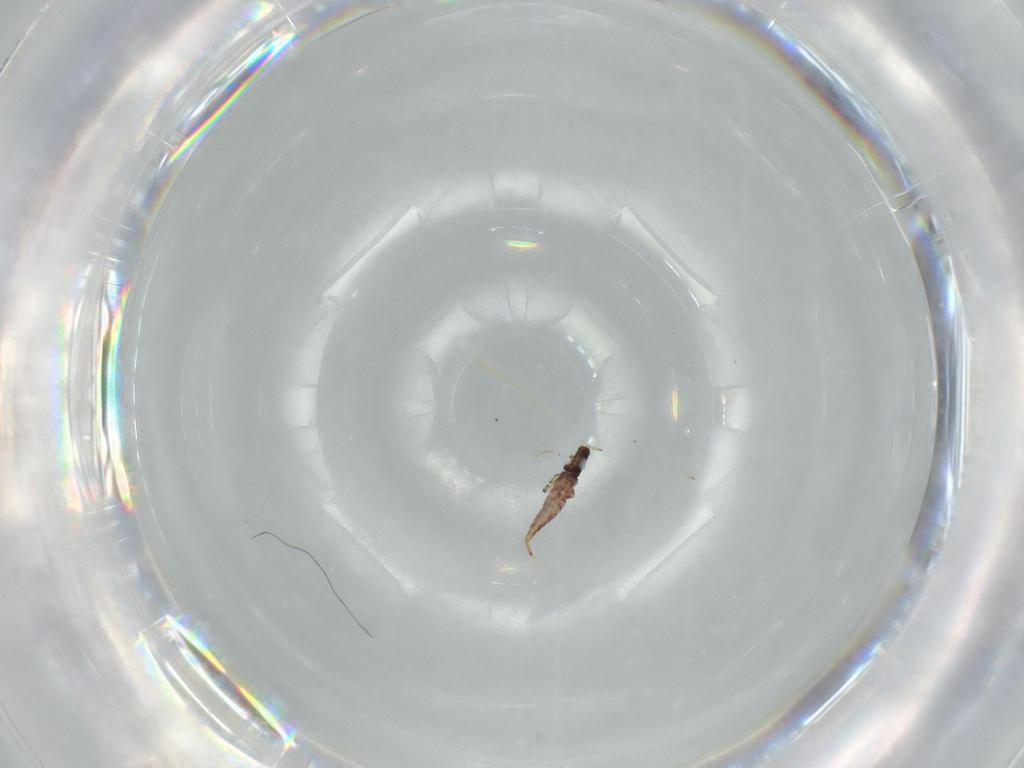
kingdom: Animalia
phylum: Arthropoda
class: Insecta
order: Thysanoptera
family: Phlaeothripidae
